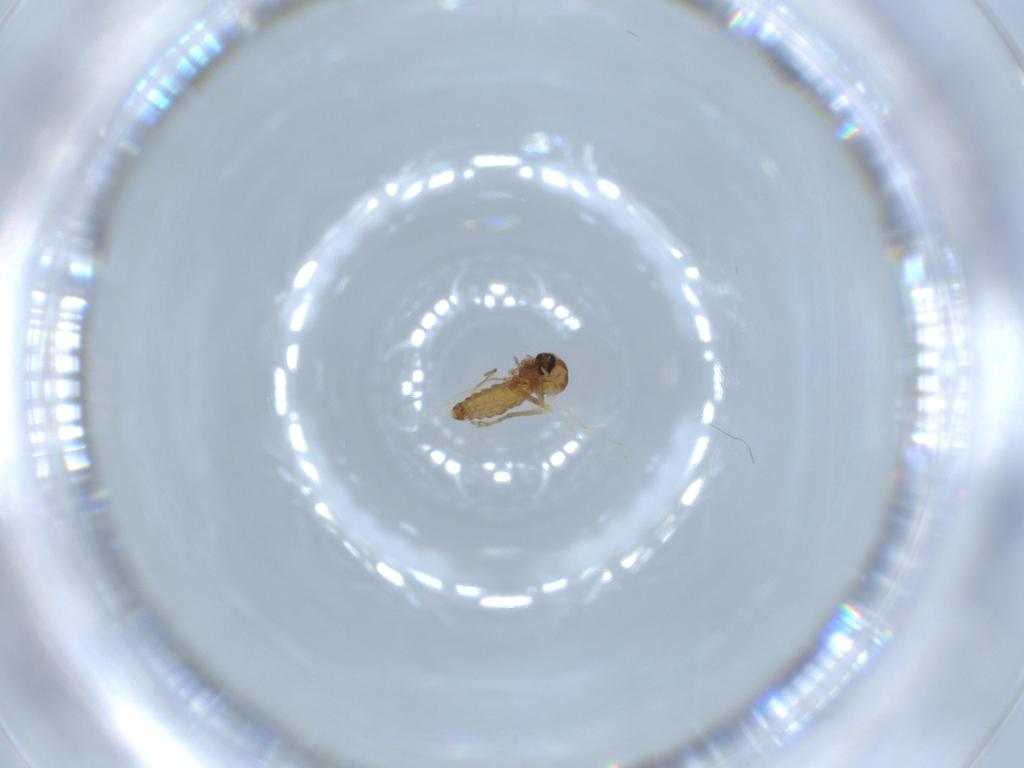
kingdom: Animalia
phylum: Arthropoda
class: Insecta
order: Diptera
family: Ceratopogonidae
